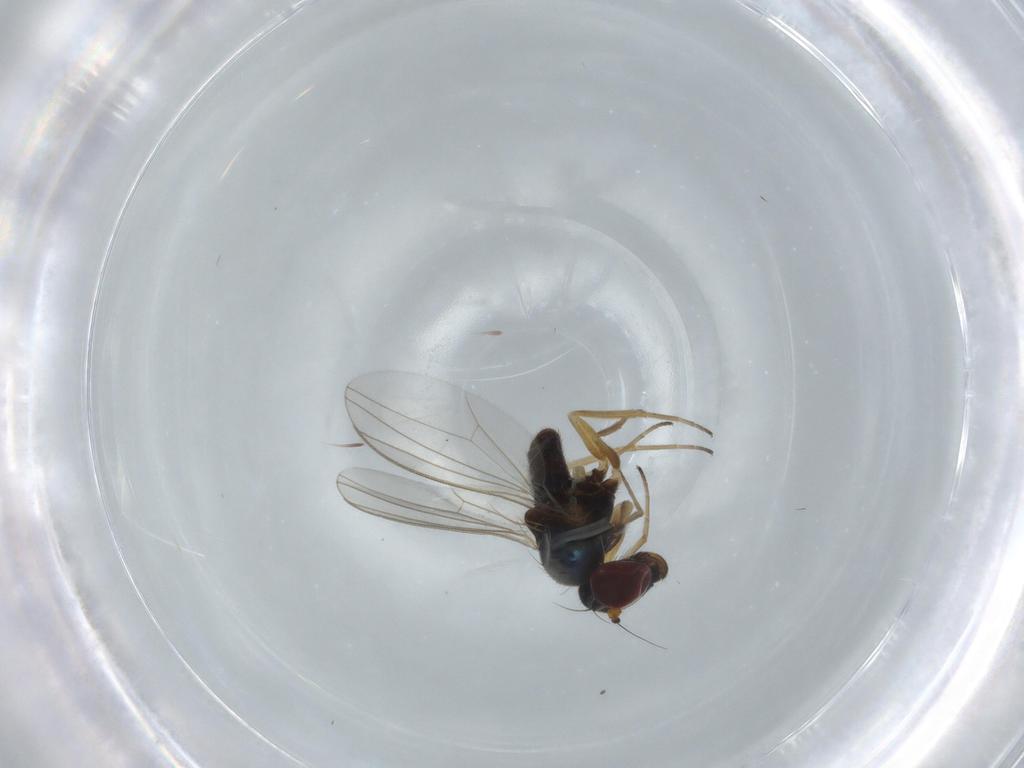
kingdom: Animalia
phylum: Arthropoda
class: Insecta
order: Diptera
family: Dolichopodidae
